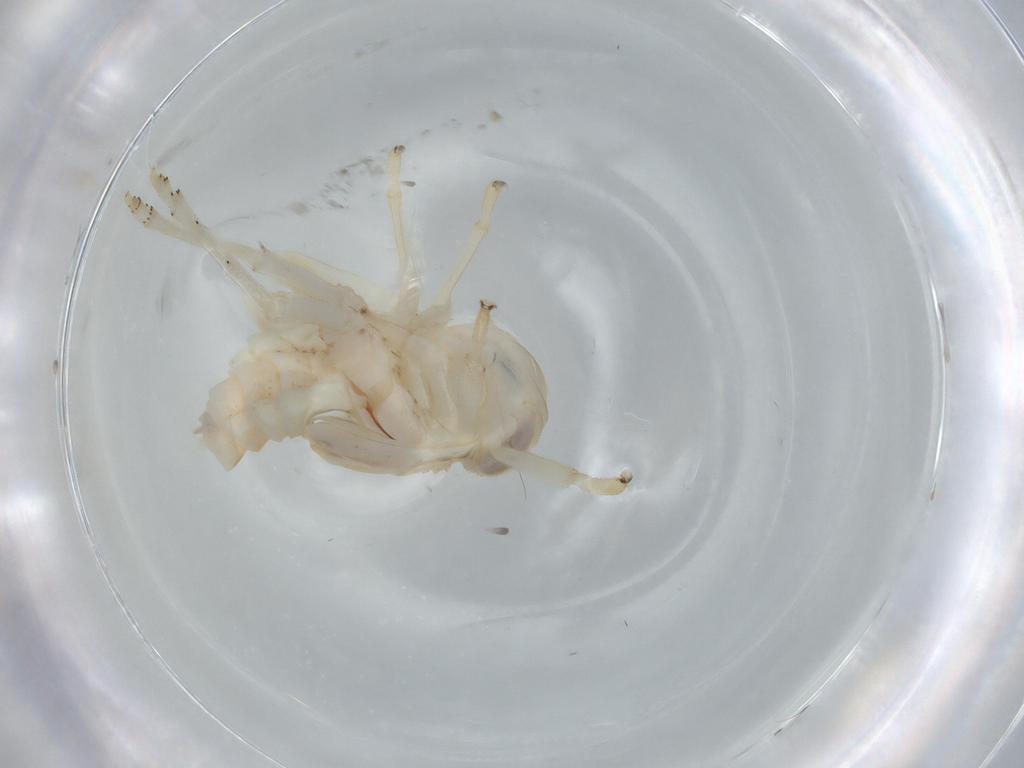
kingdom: Animalia
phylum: Arthropoda
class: Insecta
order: Hemiptera
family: Nogodinidae
